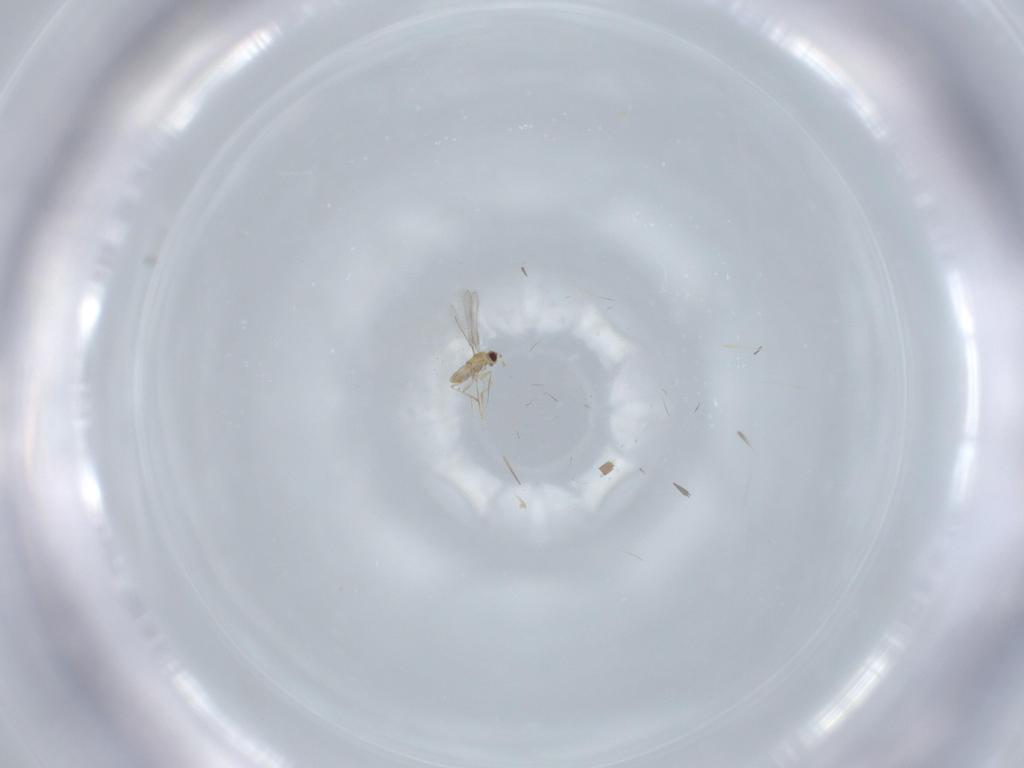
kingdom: Animalia
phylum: Arthropoda
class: Insecta
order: Hymenoptera
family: Mymaridae
